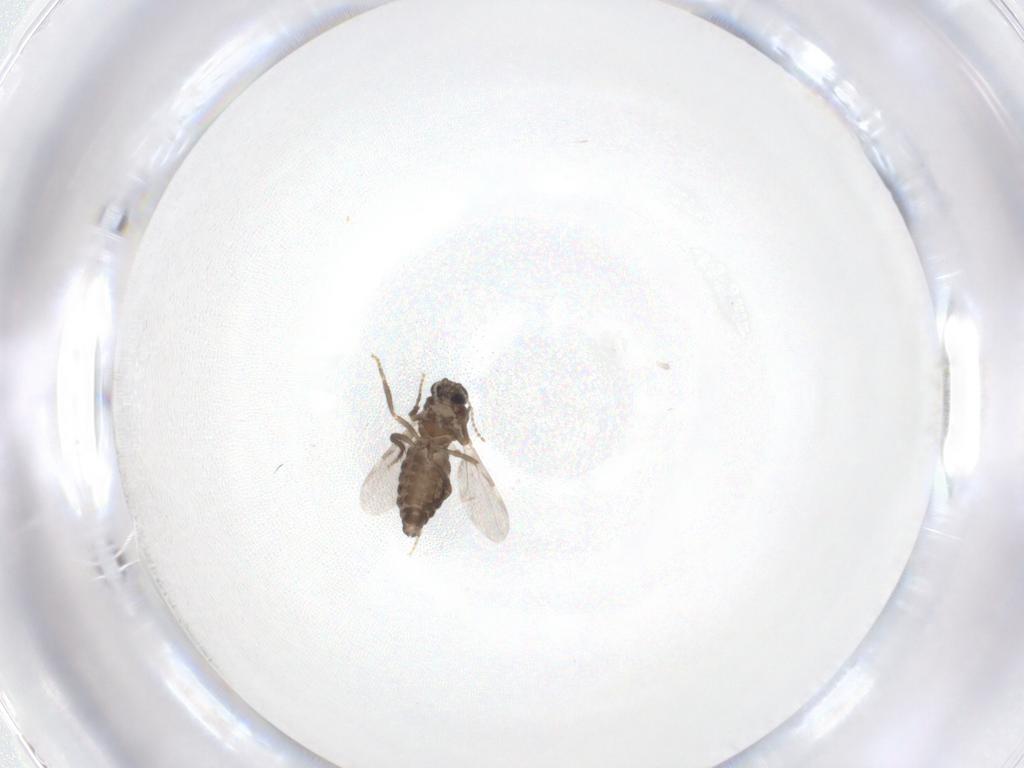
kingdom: Animalia
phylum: Arthropoda
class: Insecta
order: Diptera
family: Ceratopogonidae
